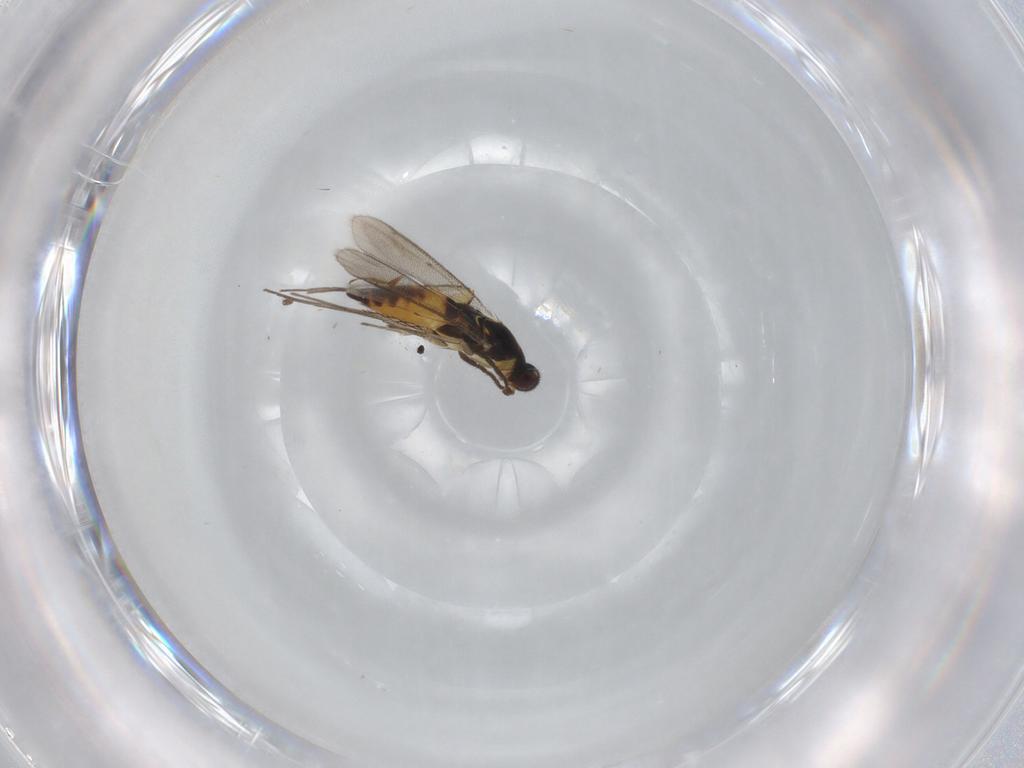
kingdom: Animalia
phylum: Arthropoda
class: Insecta
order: Hymenoptera
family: Scelionidae
